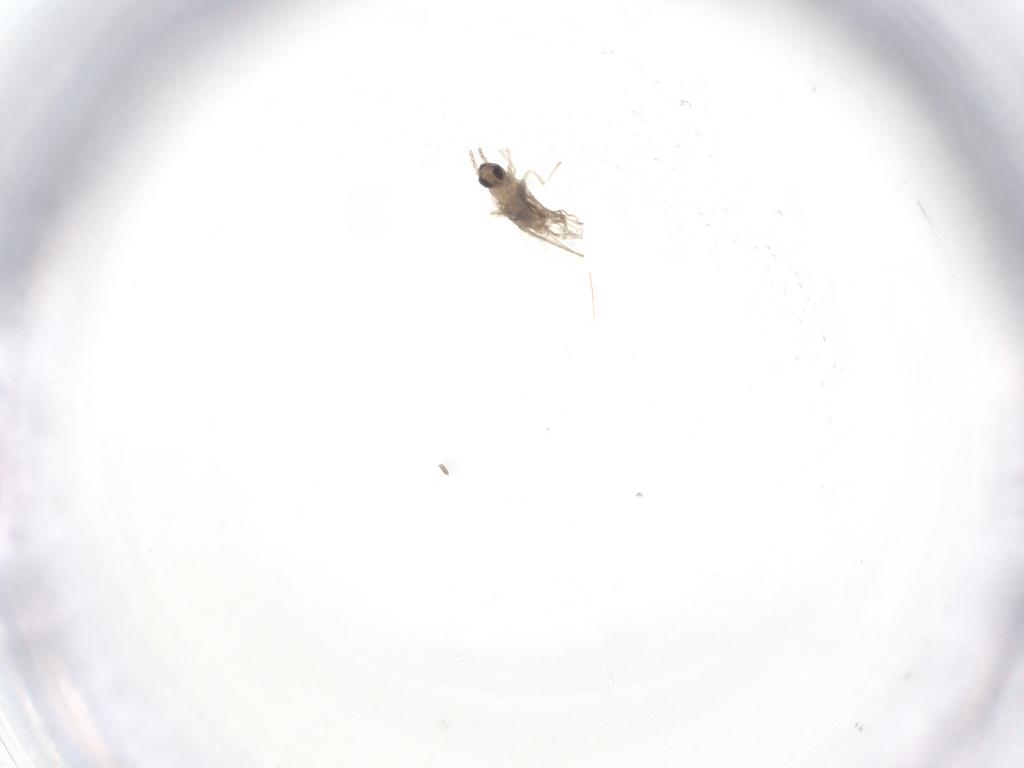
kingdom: Animalia
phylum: Arthropoda
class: Insecta
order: Diptera
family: Cecidomyiidae
